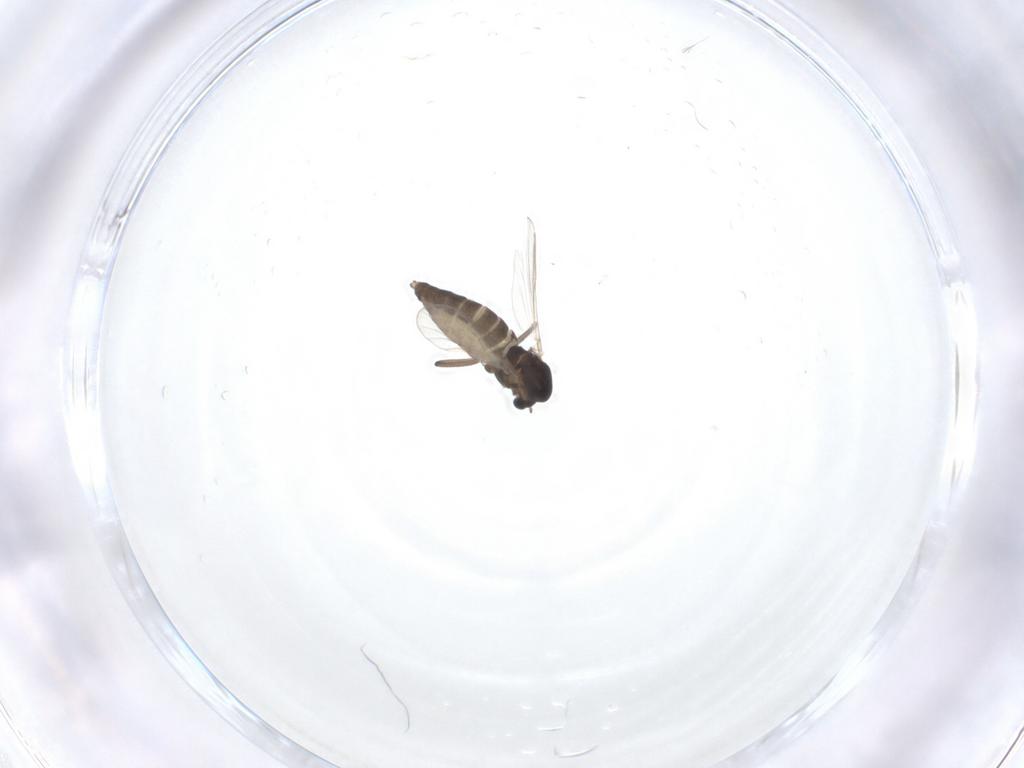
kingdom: Animalia
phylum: Arthropoda
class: Insecta
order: Diptera
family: Chironomidae
